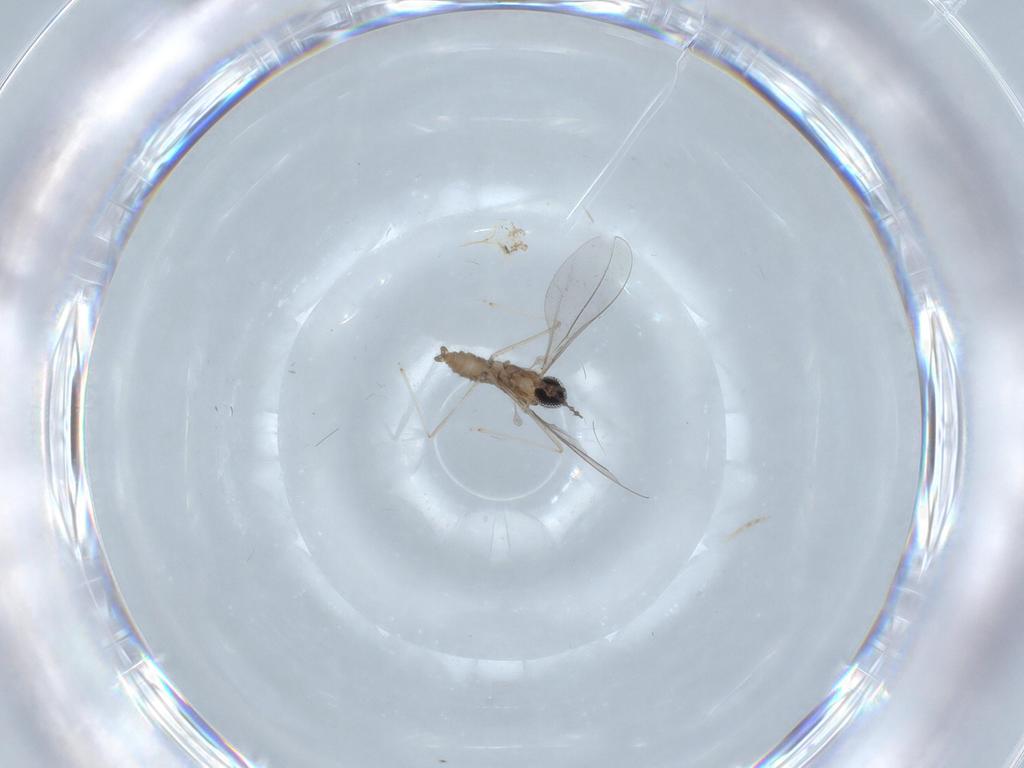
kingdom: Animalia
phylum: Arthropoda
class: Insecta
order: Diptera
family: Cecidomyiidae
